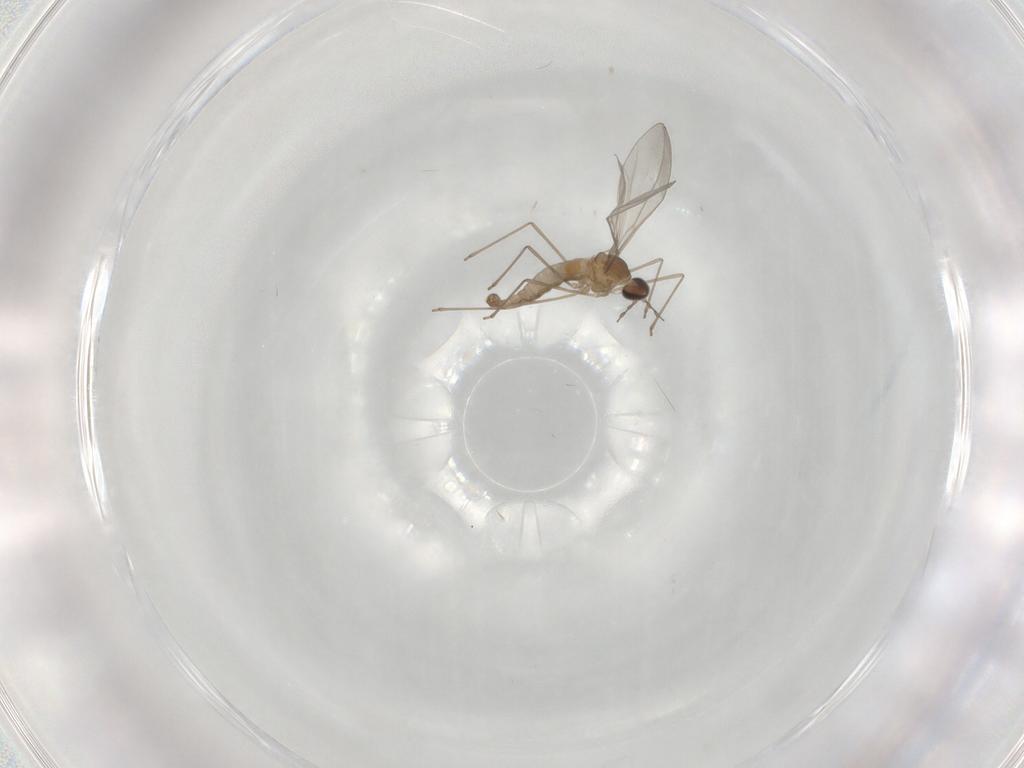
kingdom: Animalia
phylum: Arthropoda
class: Insecta
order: Diptera
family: Cecidomyiidae
